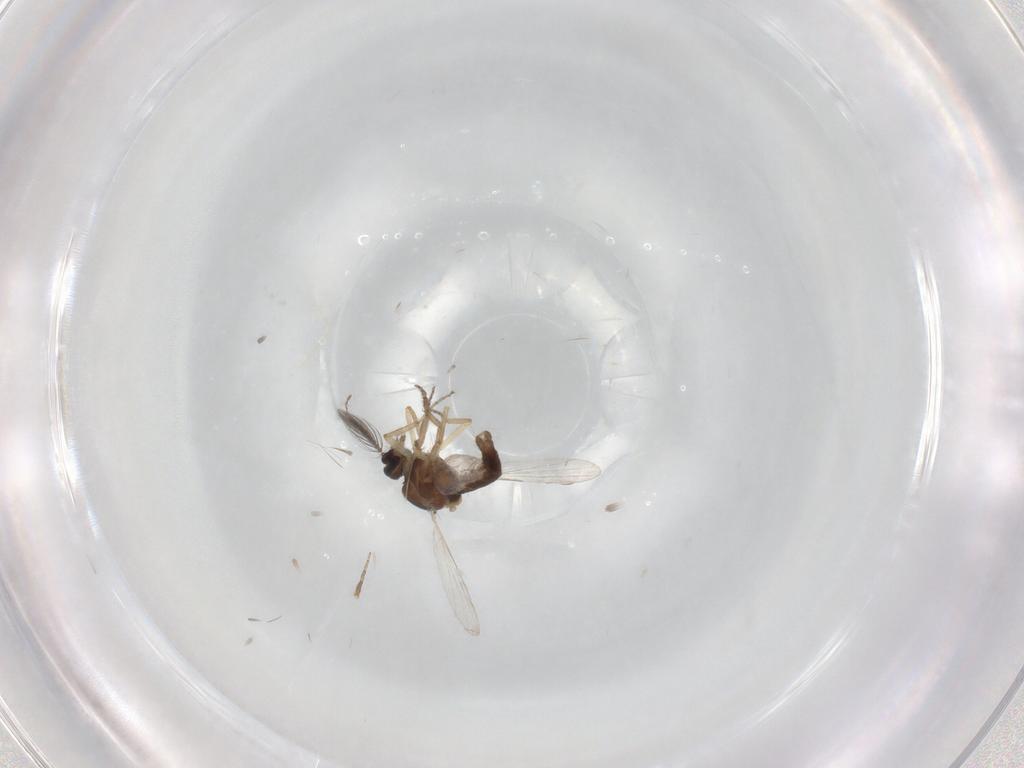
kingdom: Animalia
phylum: Arthropoda
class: Insecta
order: Diptera
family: Ceratopogonidae
